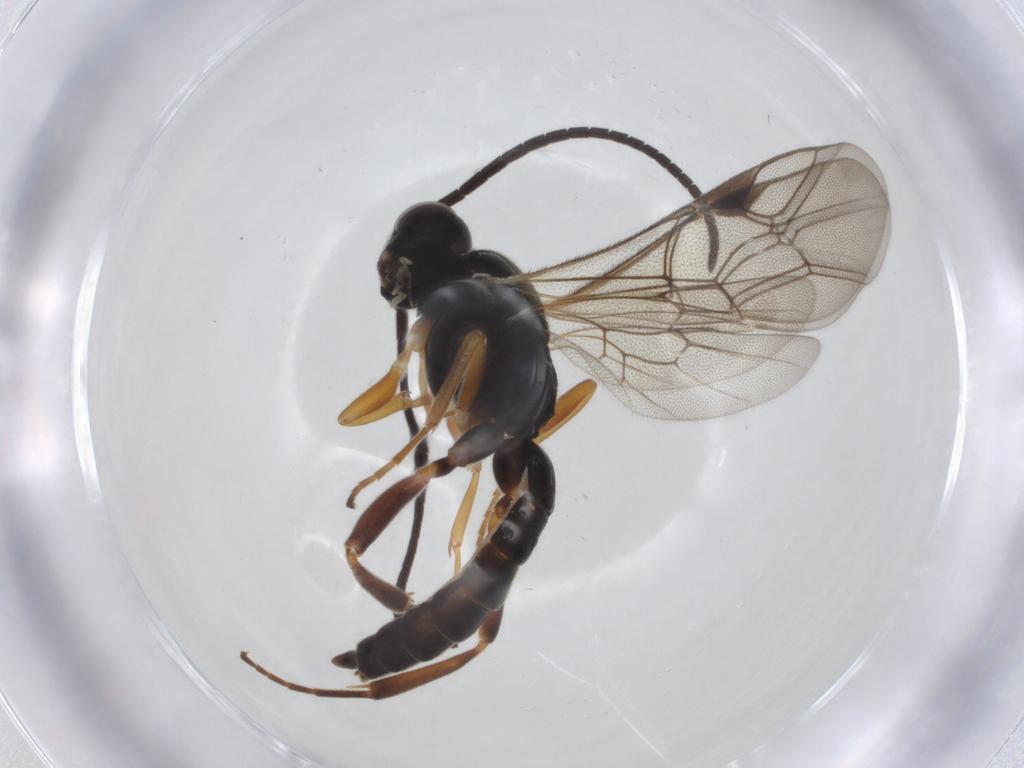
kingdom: Animalia
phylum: Arthropoda
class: Insecta
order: Hymenoptera
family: Ichneumonidae
